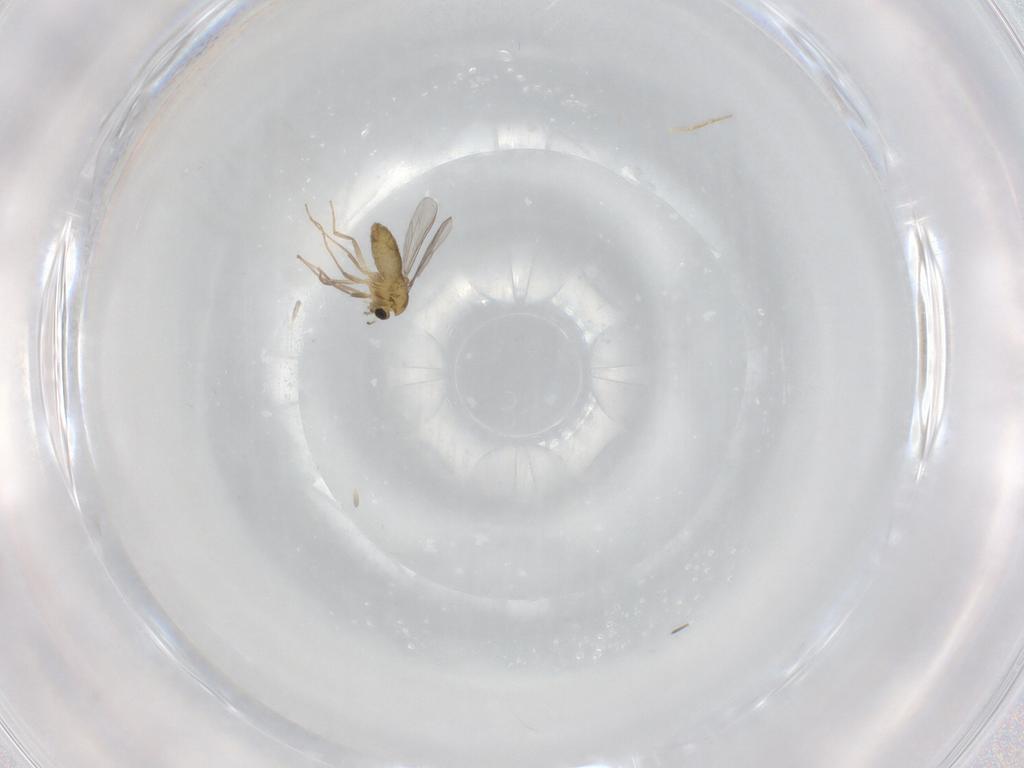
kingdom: Animalia
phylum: Arthropoda
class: Insecta
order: Diptera
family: Chironomidae
